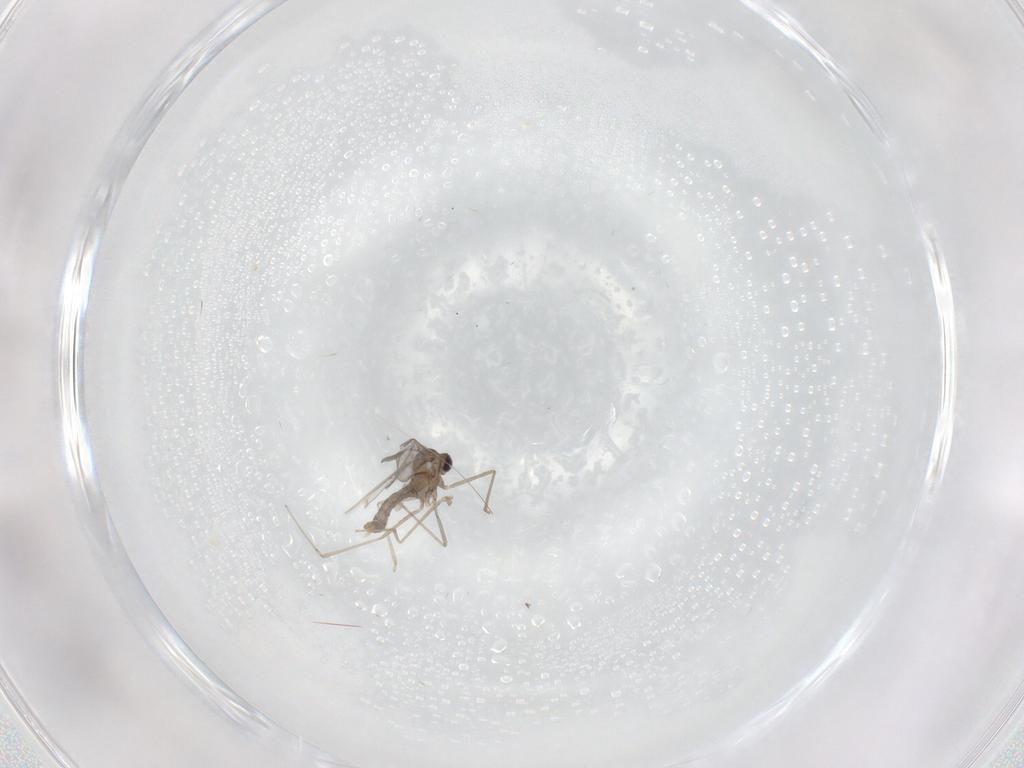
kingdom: Animalia
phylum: Arthropoda
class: Insecta
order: Diptera
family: Cecidomyiidae
